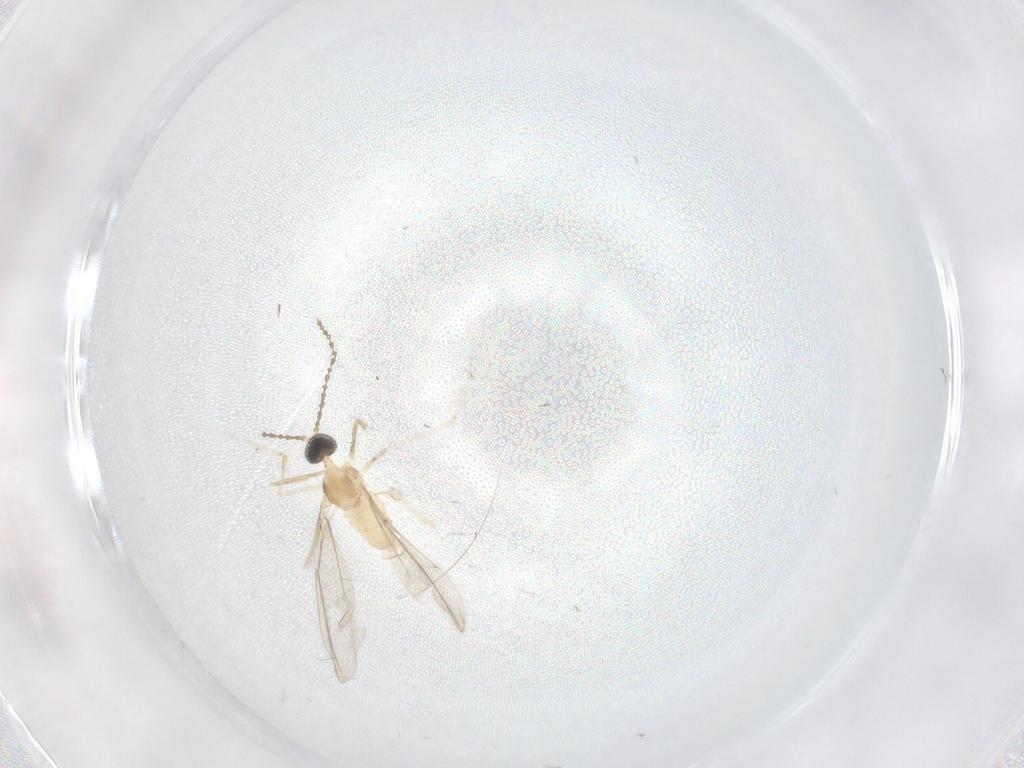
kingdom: Animalia
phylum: Arthropoda
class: Insecta
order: Diptera
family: Cecidomyiidae
